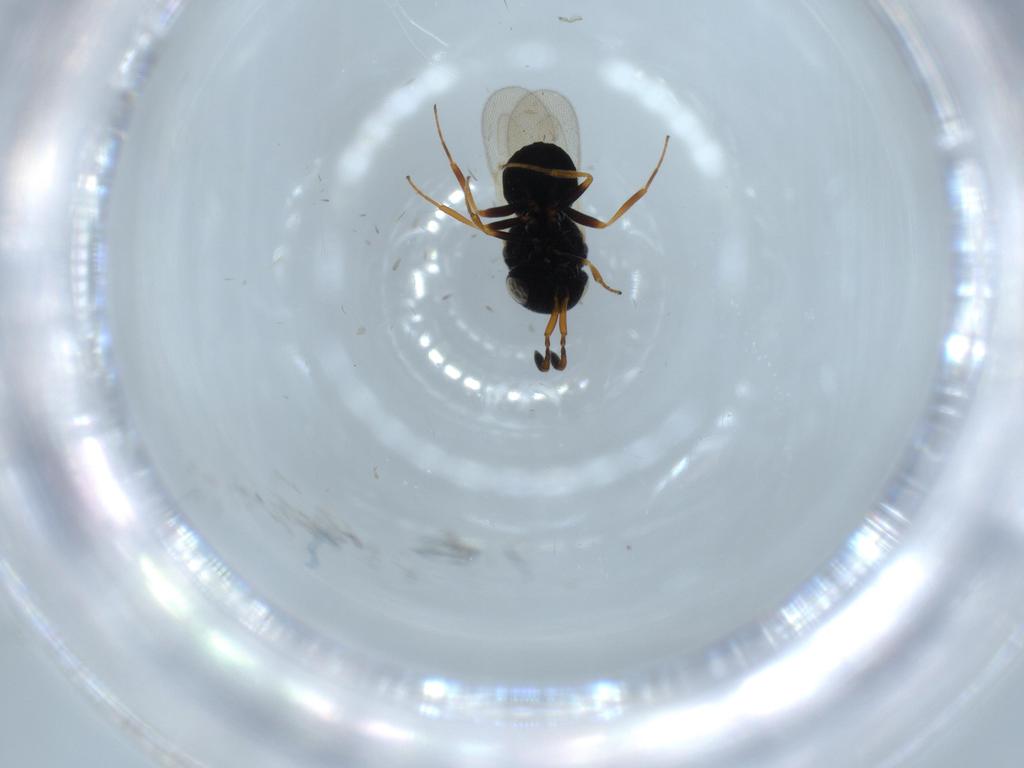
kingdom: Animalia
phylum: Arthropoda
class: Insecta
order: Hymenoptera
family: Scelionidae
